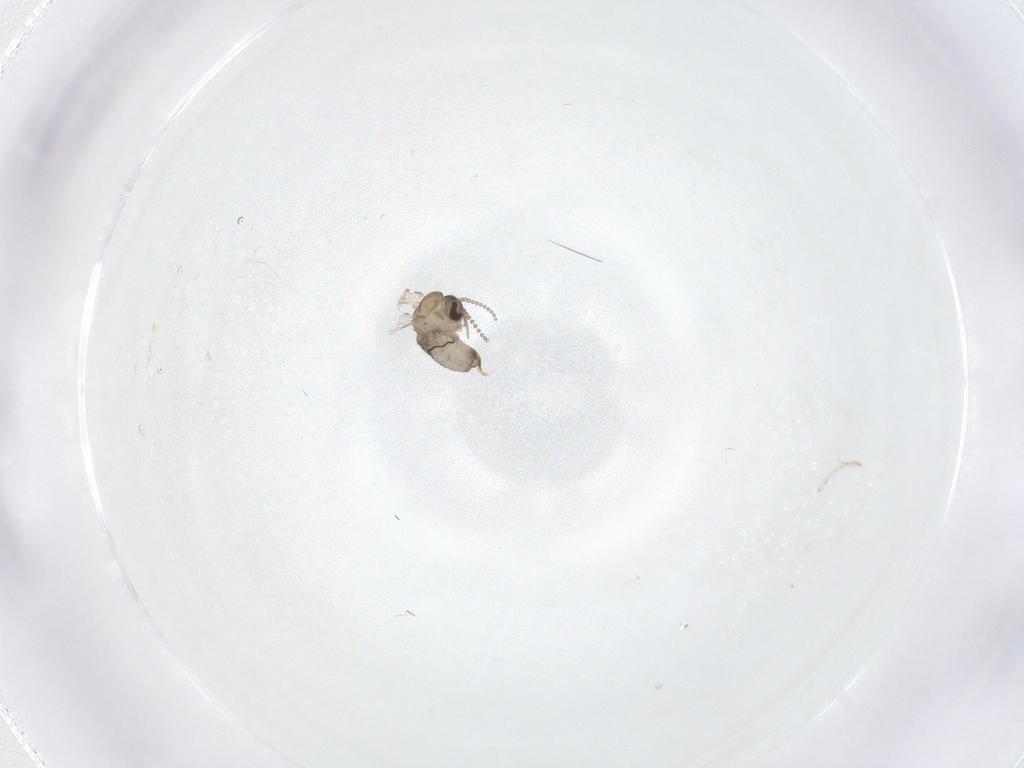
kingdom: Animalia
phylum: Arthropoda
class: Insecta
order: Diptera
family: Psychodidae
